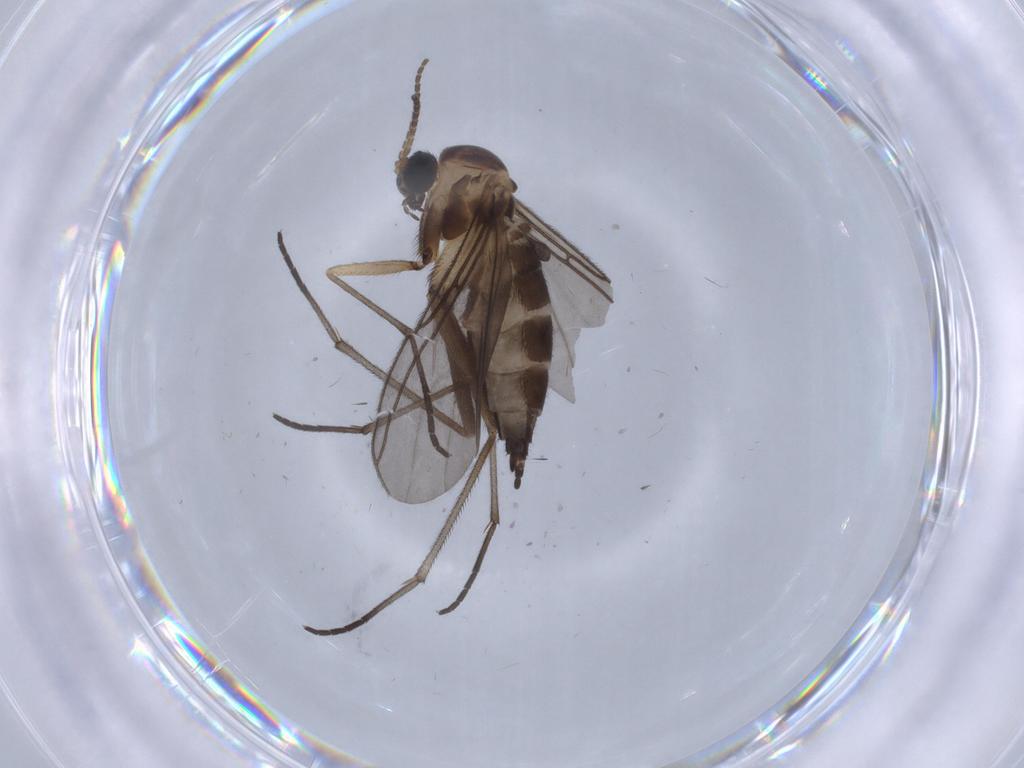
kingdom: Animalia
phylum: Arthropoda
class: Insecta
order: Diptera
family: Sciaridae
